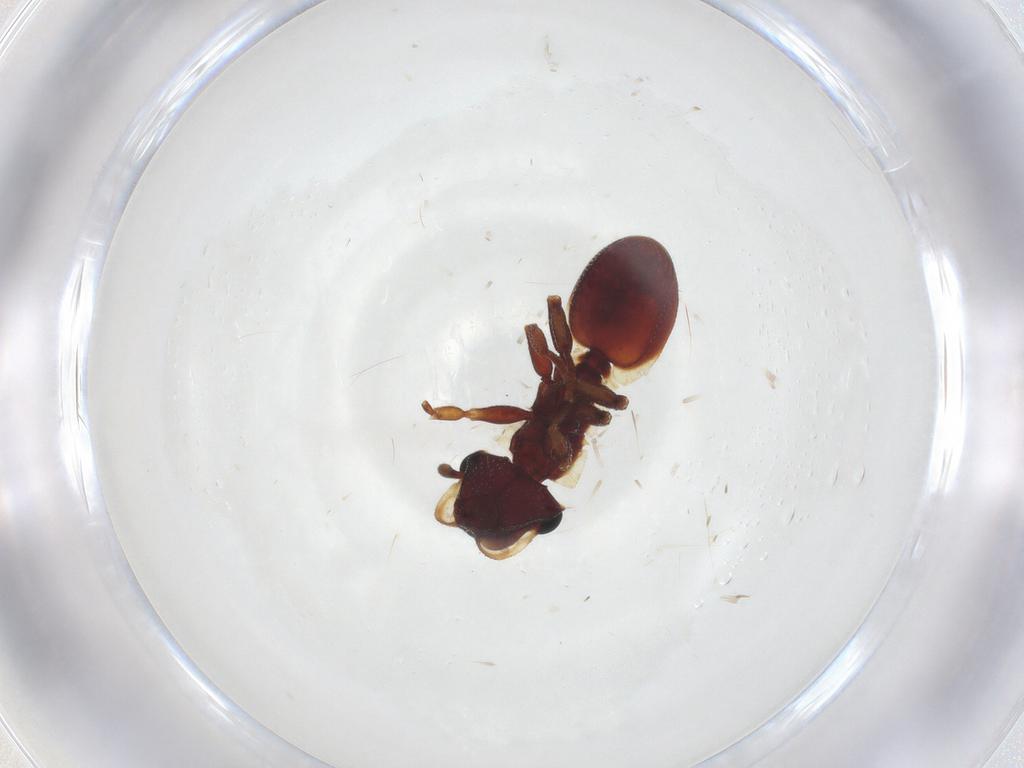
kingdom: Animalia
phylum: Arthropoda
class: Insecta
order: Hymenoptera
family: Formicidae
